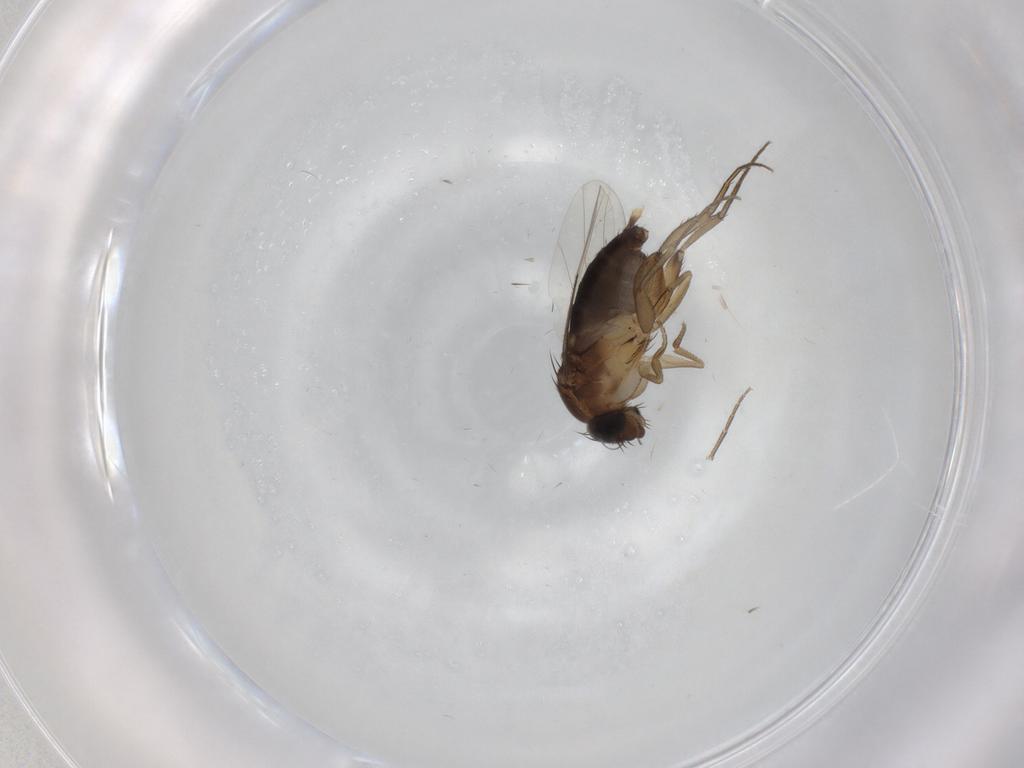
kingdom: Animalia
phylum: Arthropoda
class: Insecta
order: Diptera
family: Phoridae
